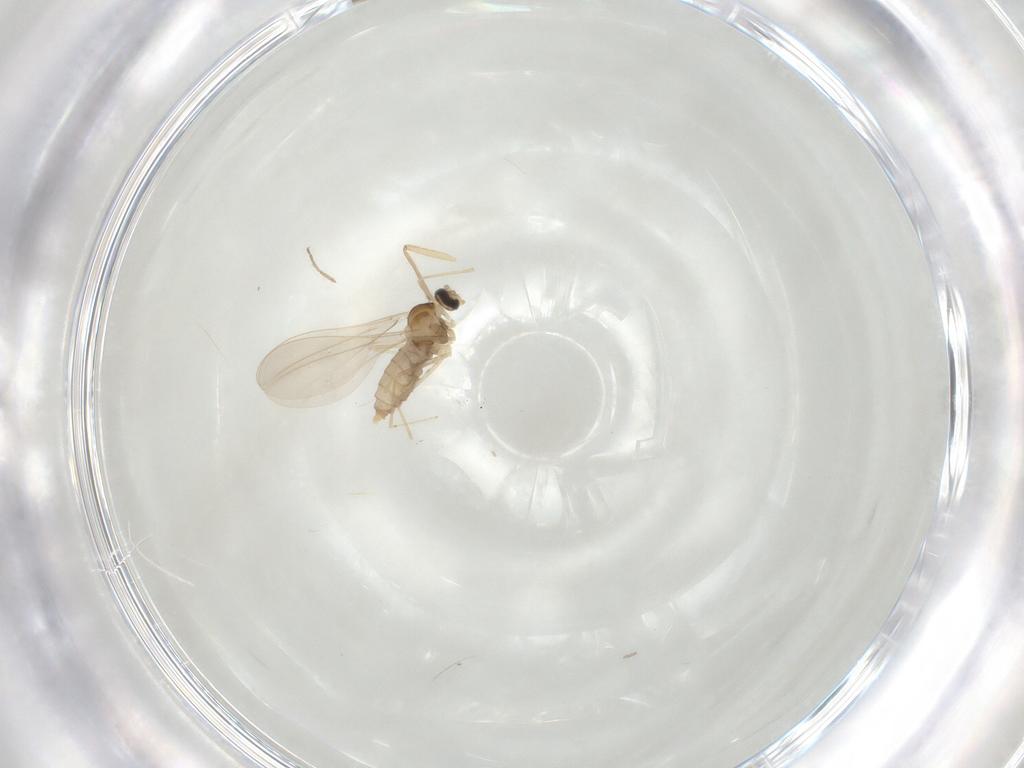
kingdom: Animalia
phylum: Arthropoda
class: Insecta
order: Diptera
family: Cecidomyiidae
